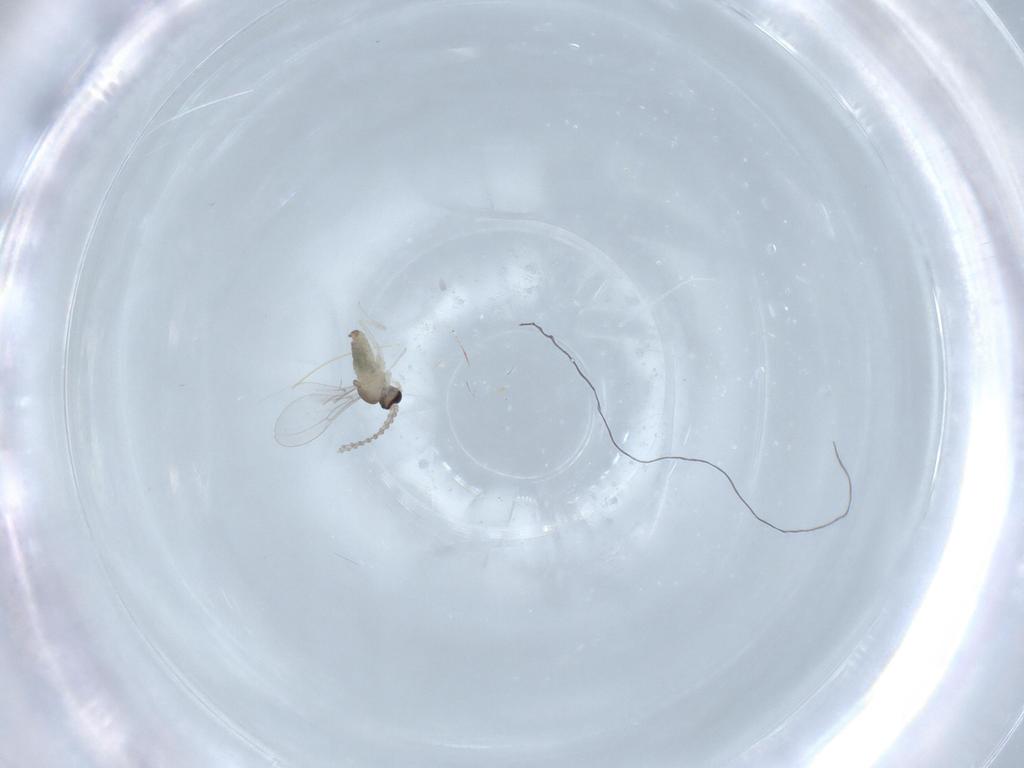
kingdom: Animalia
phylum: Arthropoda
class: Insecta
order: Diptera
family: Cecidomyiidae
